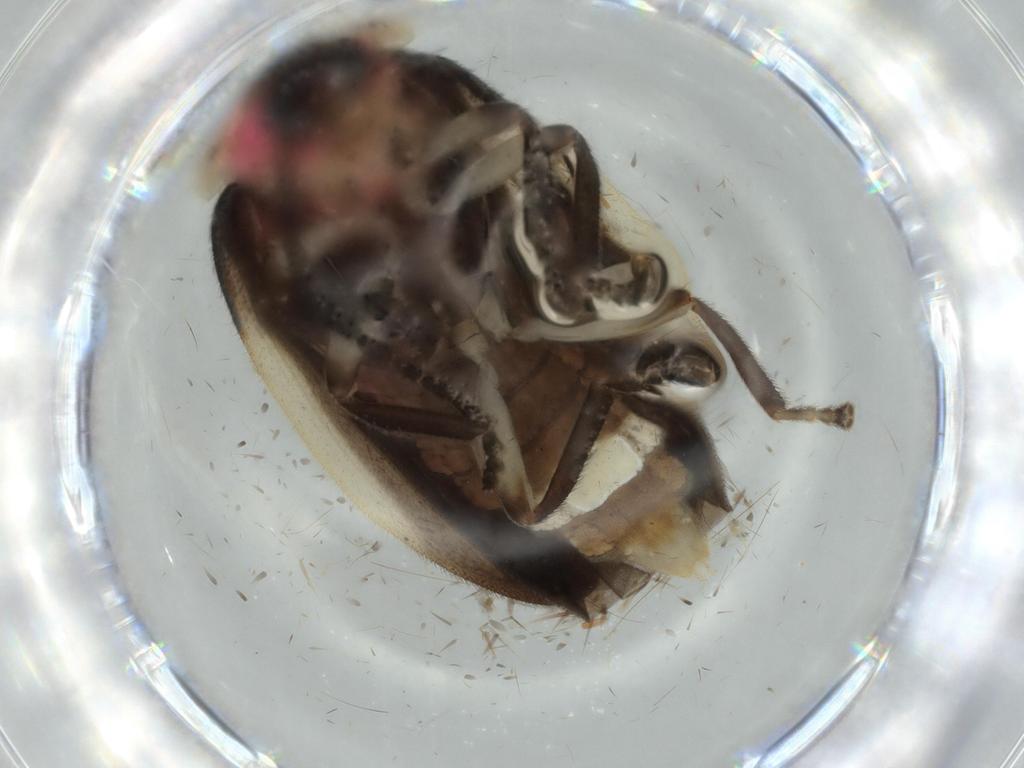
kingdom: Animalia
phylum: Arthropoda
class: Insecta
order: Coleoptera
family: Lampyridae
